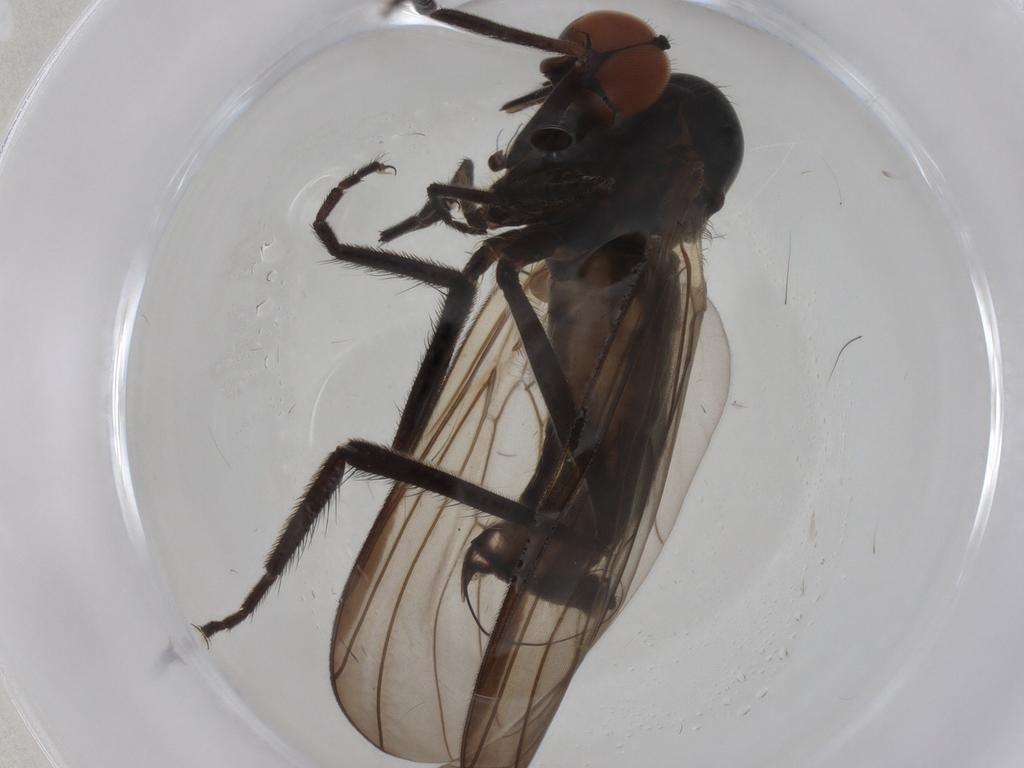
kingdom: Animalia
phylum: Arthropoda
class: Insecta
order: Diptera
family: Empididae
